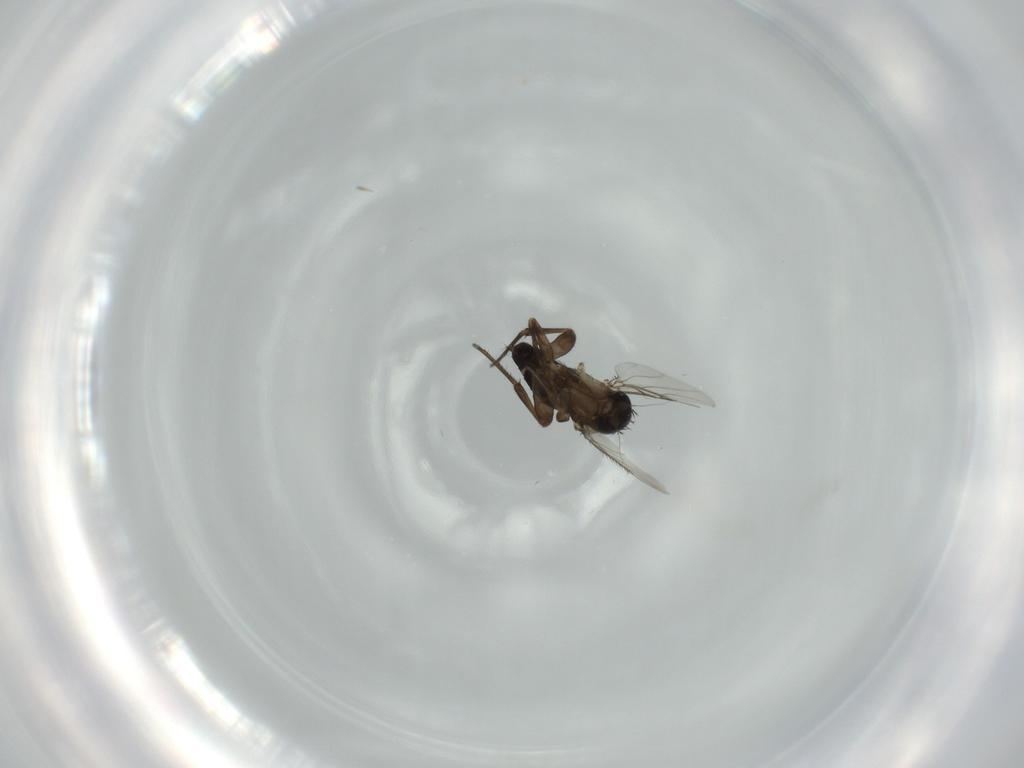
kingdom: Animalia
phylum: Arthropoda
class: Insecta
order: Diptera
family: Phoridae
